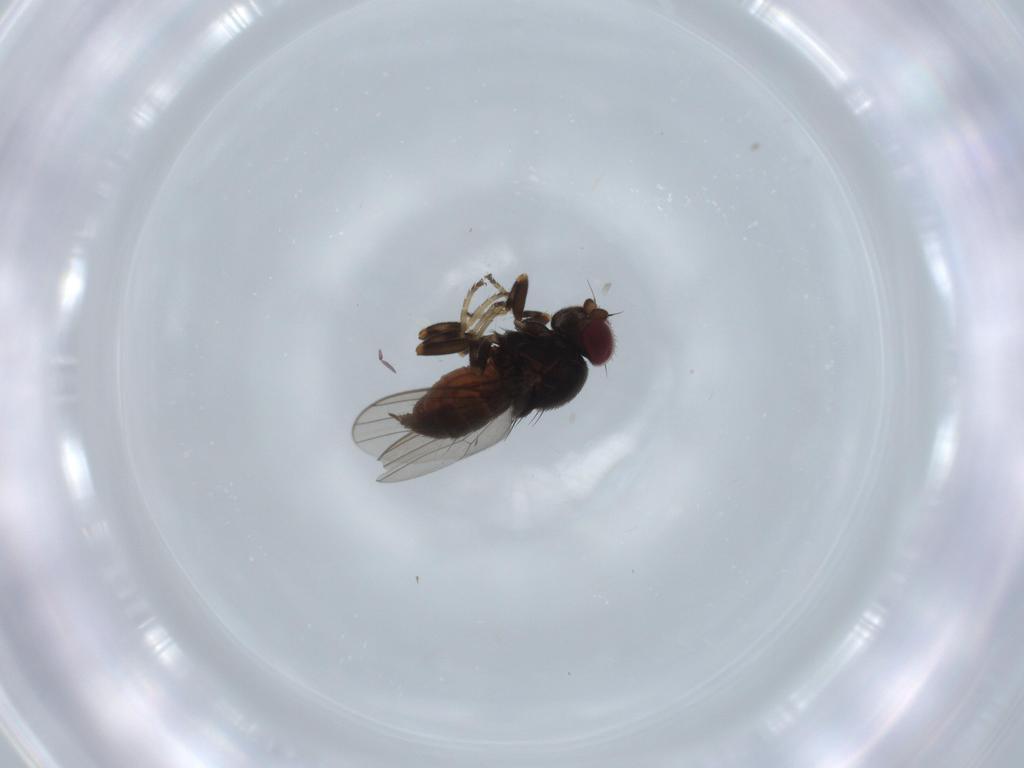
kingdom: Animalia
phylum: Arthropoda
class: Insecta
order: Diptera
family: Chloropidae
